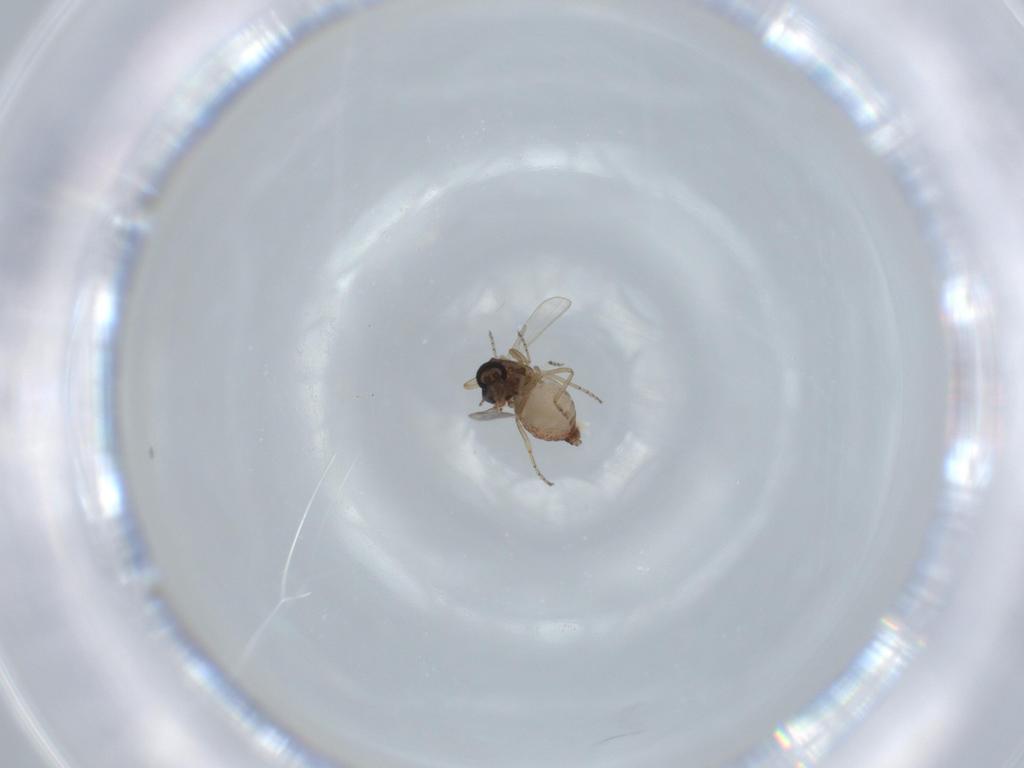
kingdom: Animalia
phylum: Arthropoda
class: Insecta
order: Diptera
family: Ceratopogonidae
